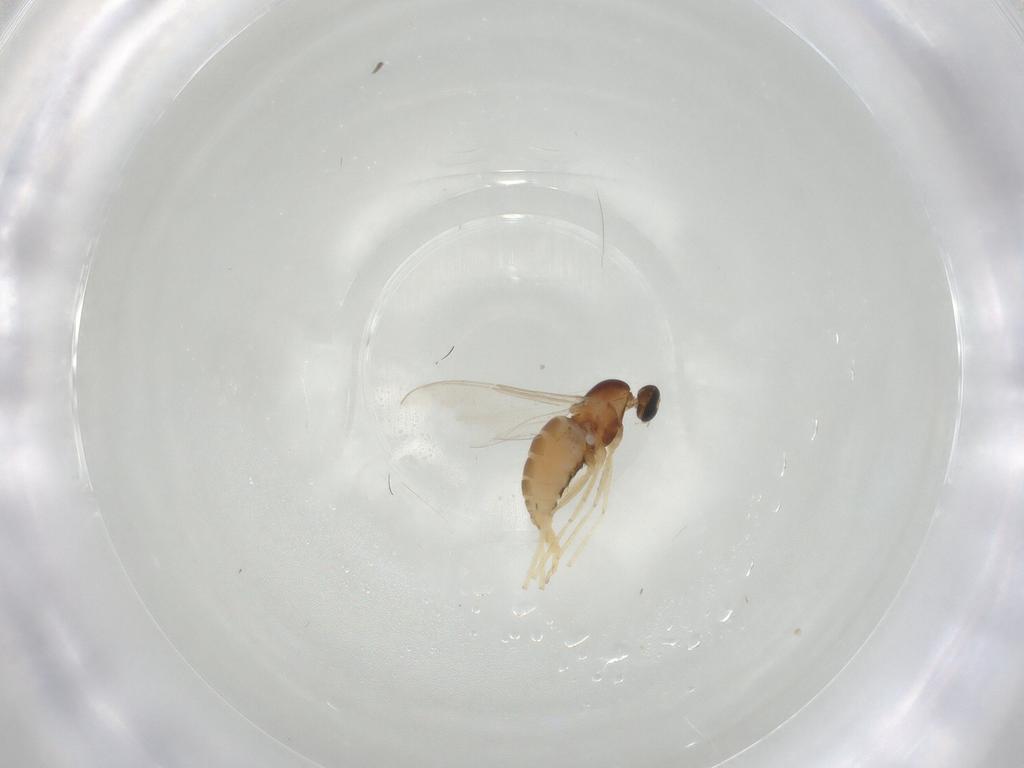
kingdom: Animalia
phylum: Arthropoda
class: Insecta
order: Diptera
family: Cecidomyiidae
